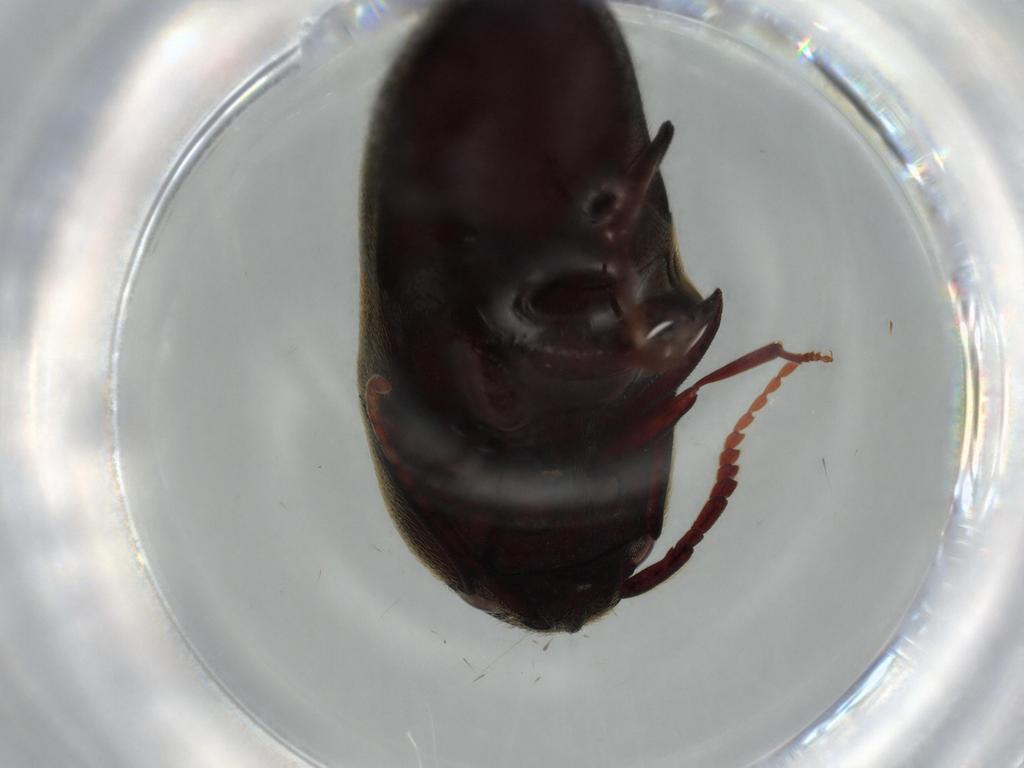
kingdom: Animalia
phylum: Arthropoda
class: Insecta
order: Coleoptera
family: Eucnemidae
